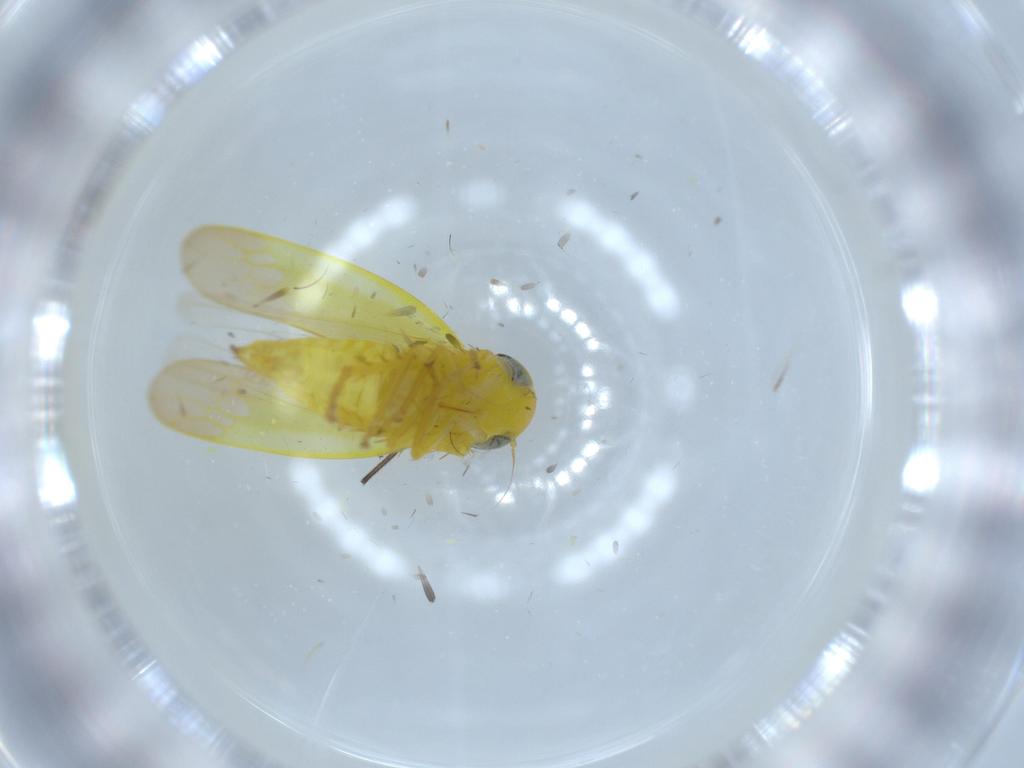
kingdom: Animalia
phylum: Arthropoda
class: Insecta
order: Hemiptera
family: Cicadellidae
